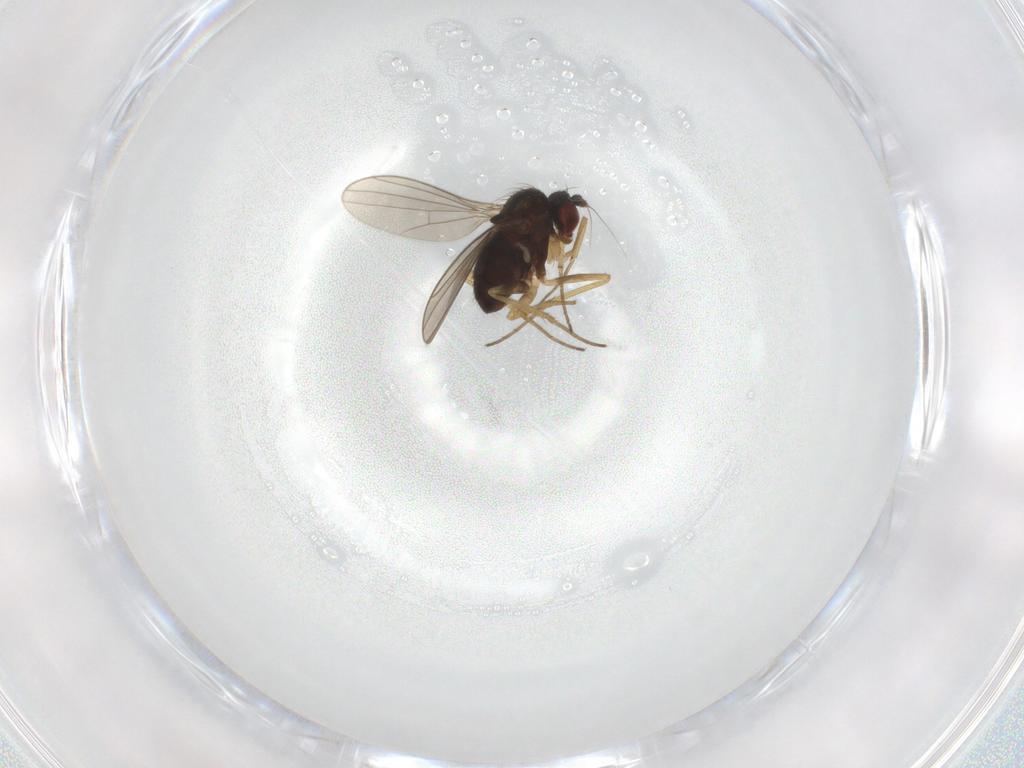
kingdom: Animalia
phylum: Arthropoda
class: Insecta
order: Diptera
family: Dolichopodidae
